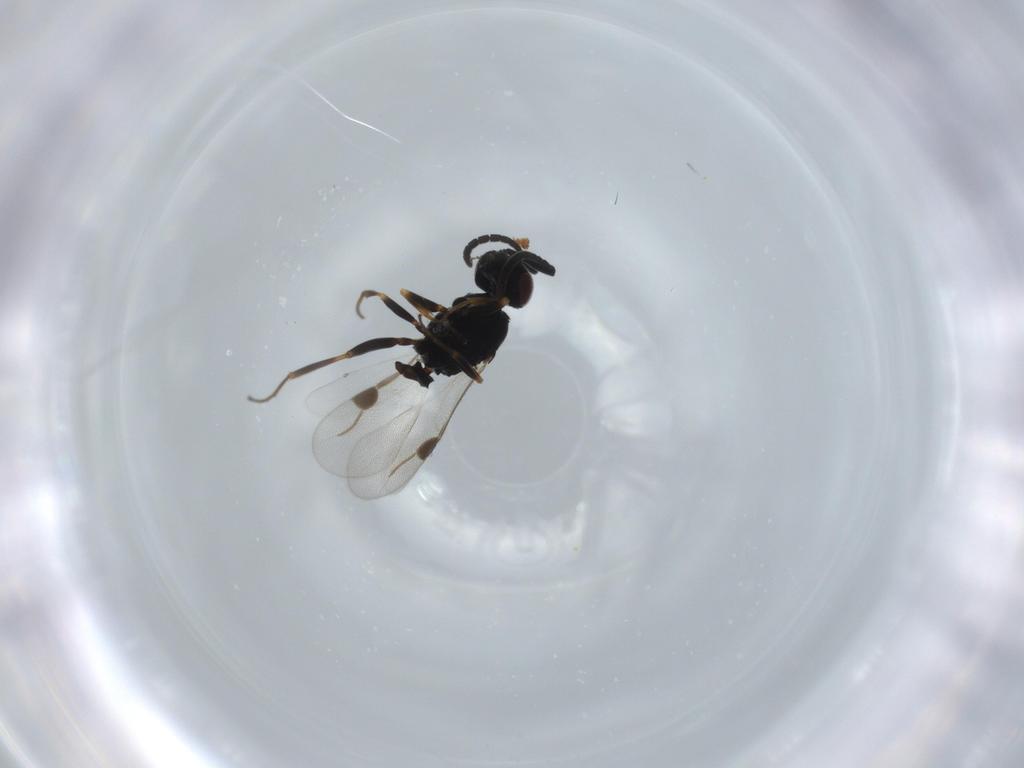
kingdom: Animalia
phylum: Arthropoda
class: Insecta
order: Diptera
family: Psychodidae
